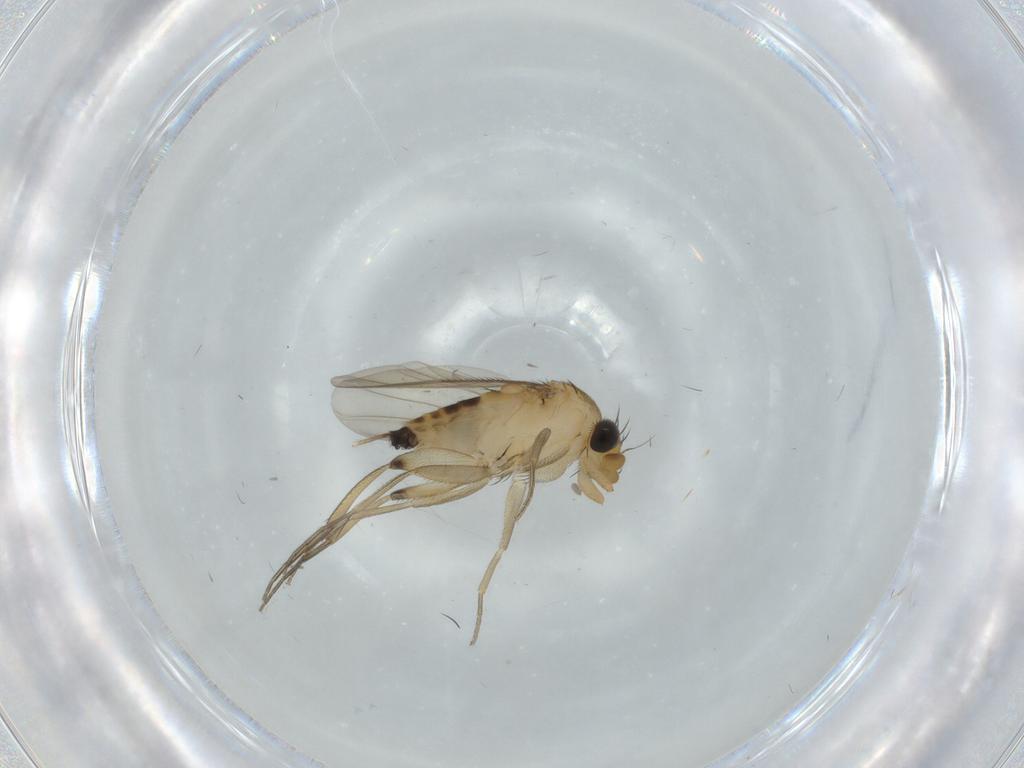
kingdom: Animalia
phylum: Arthropoda
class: Insecta
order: Diptera
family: Phoridae
